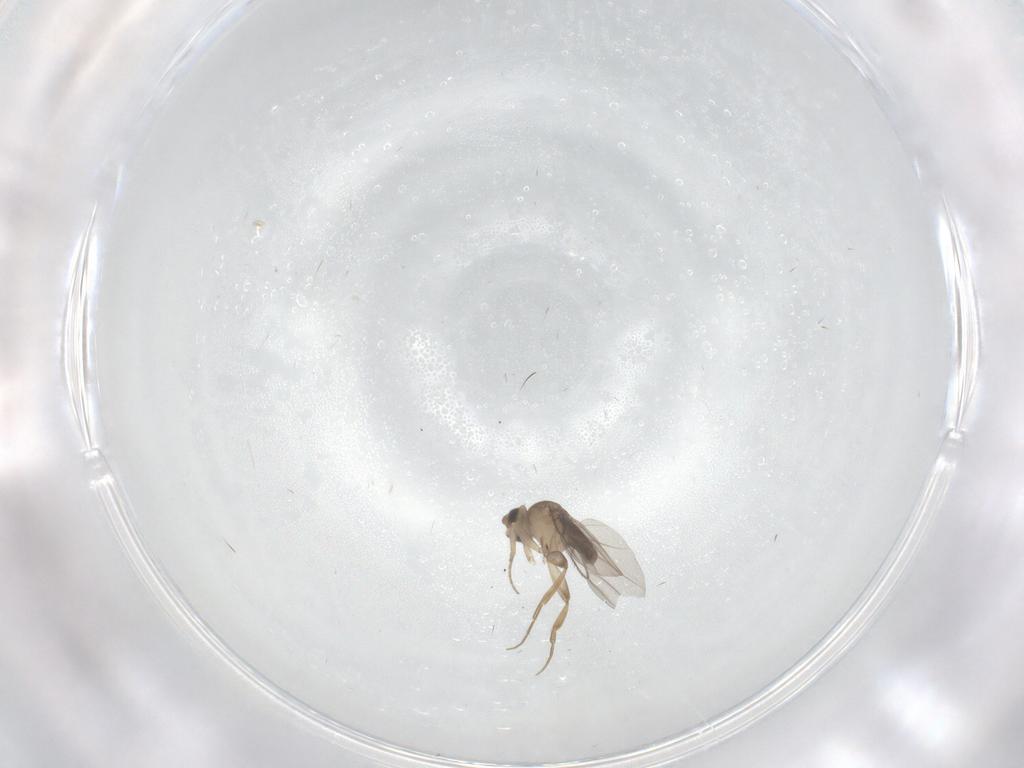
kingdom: Animalia
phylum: Arthropoda
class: Insecta
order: Diptera
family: Phoridae
